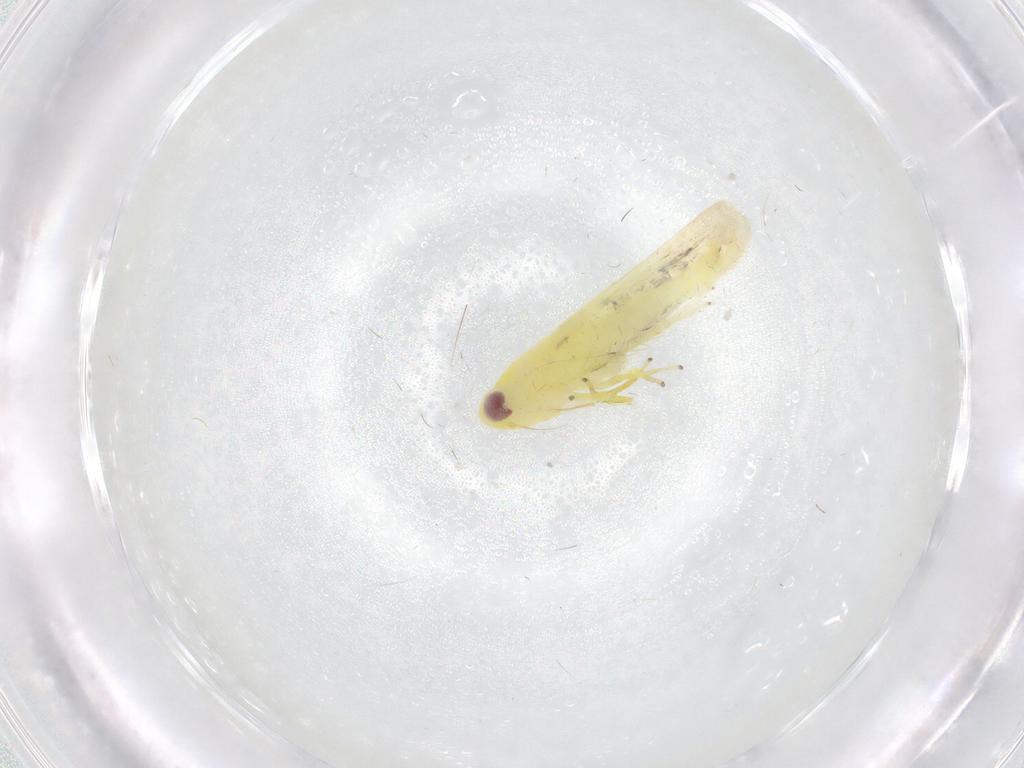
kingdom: Animalia
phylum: Arthropoda
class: Insecta
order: Hemiptera
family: Cicadellidae
